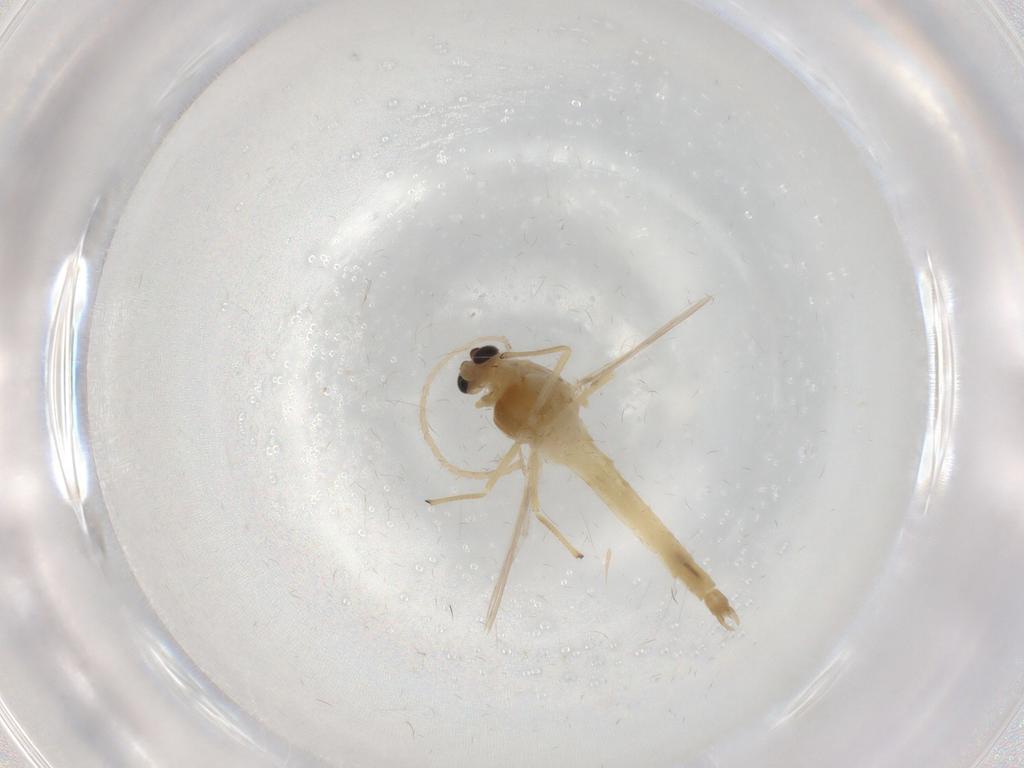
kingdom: Animalia
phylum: Arthropoda
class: Insecta
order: Diptera
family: Chironomidae
